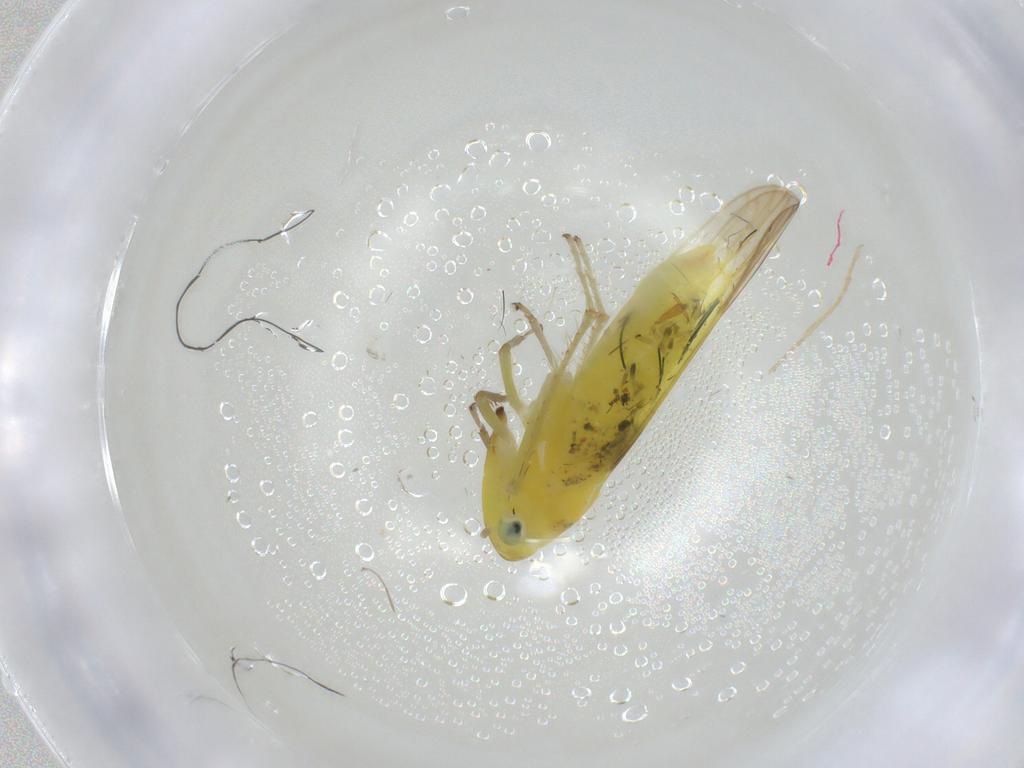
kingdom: Animalia
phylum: Arthropoda
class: Insecta
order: Diptera
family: Dolichopodidae
